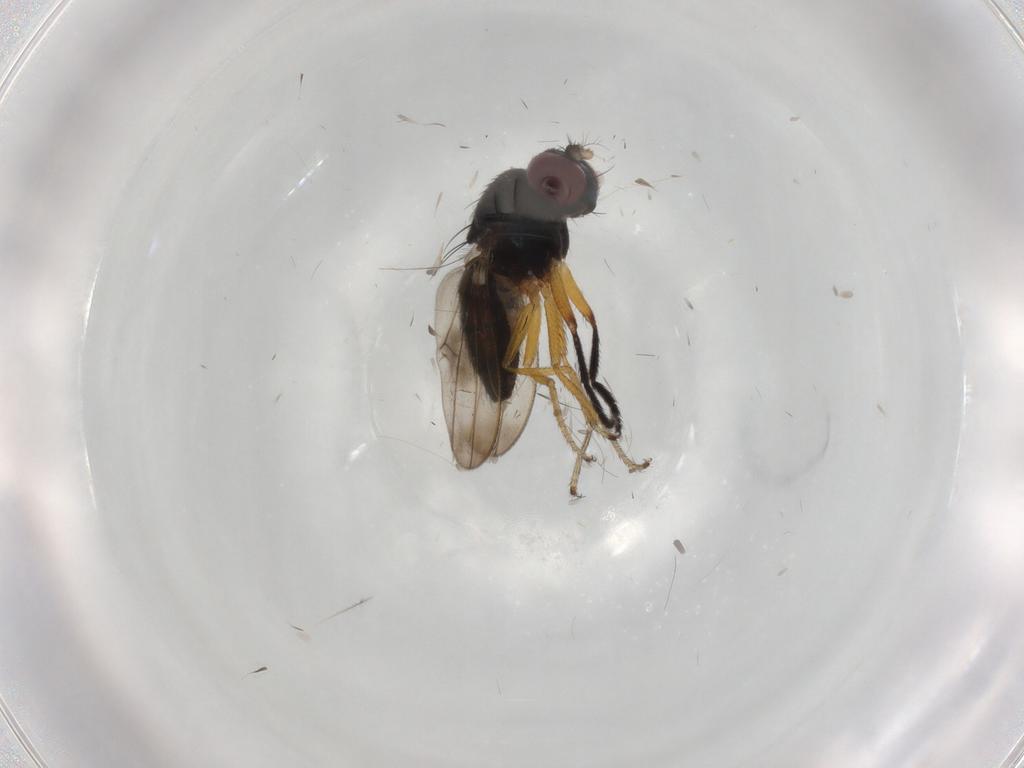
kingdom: Animalia
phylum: Arthropoda
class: Insecta
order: Diptera
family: Ephydridae
